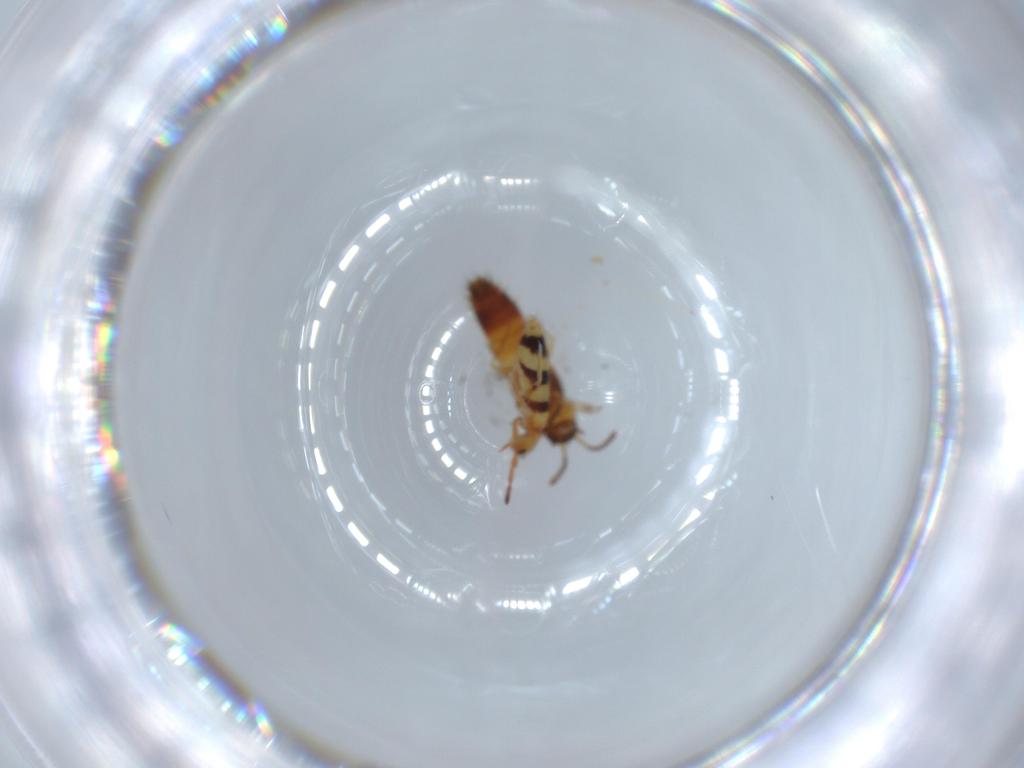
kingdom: Animalia
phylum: Arthropoda
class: Collembola
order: Entomobryomorpha
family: Entomobryidae
